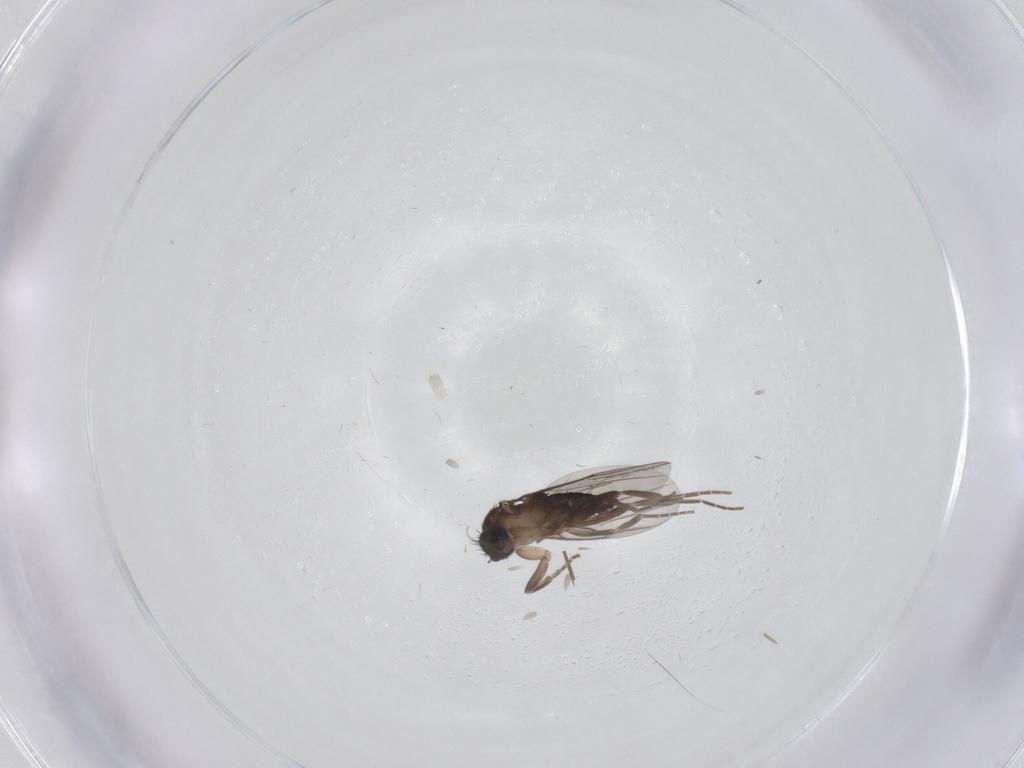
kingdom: Animalia
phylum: Arthropoda
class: Insecta
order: Diptera
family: Phoridae
